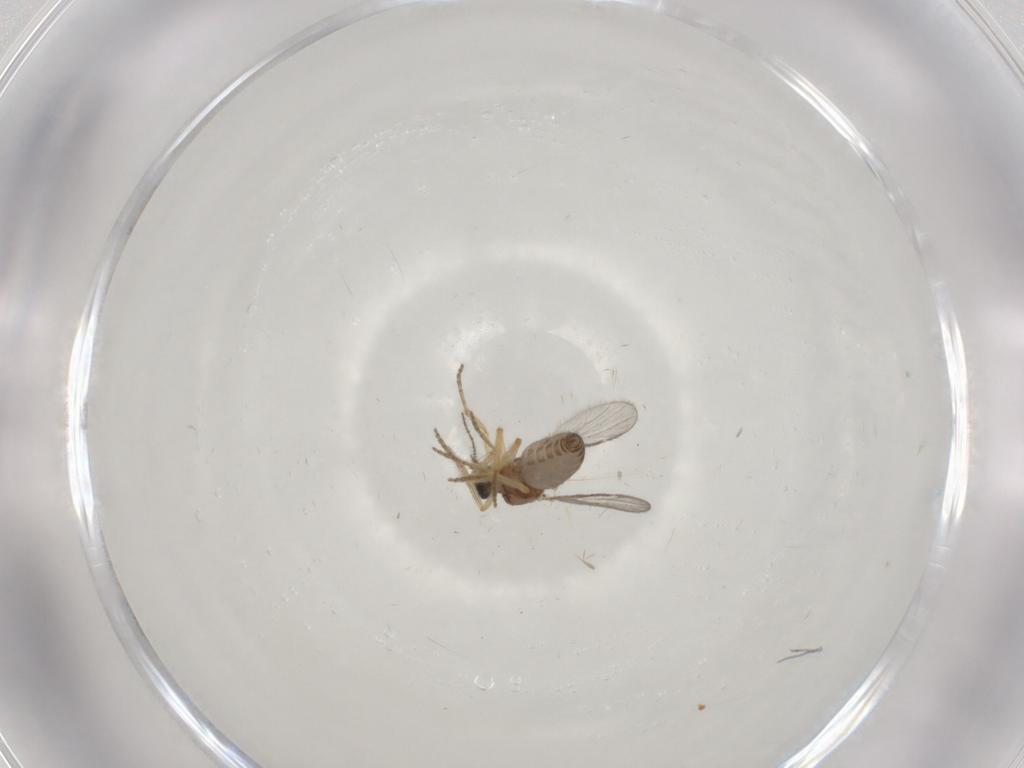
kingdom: Animalia
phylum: Arthropoda
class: Insecta
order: Diptera
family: Ceratopogonidae
